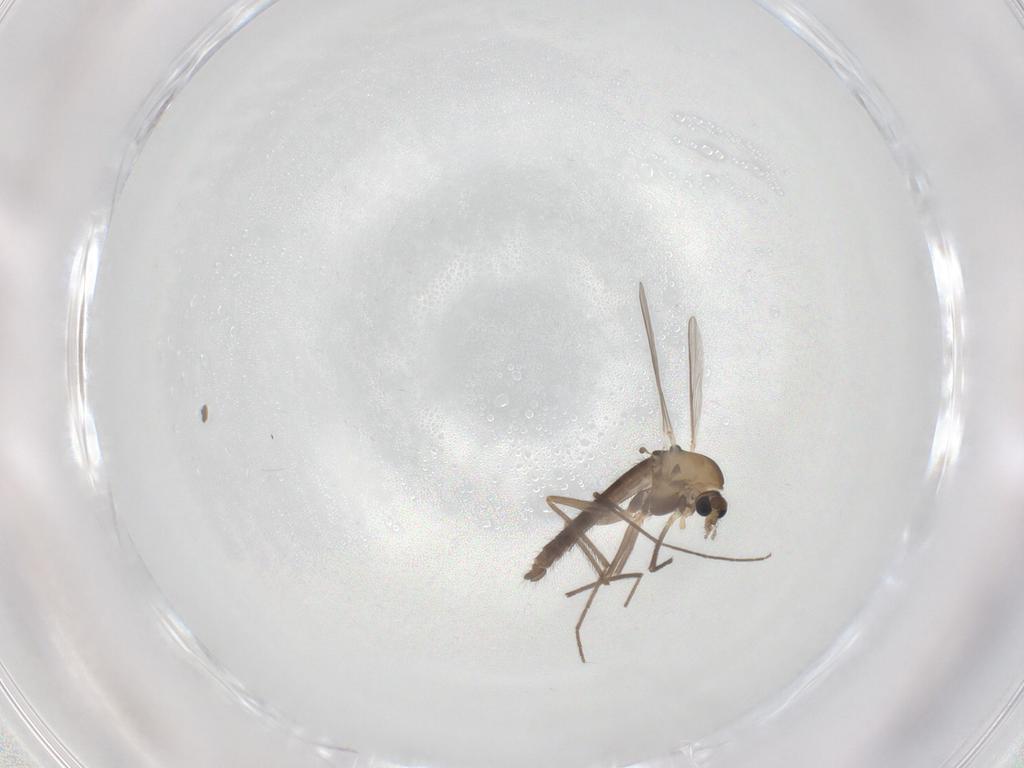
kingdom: Animalia
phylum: Arthropoda
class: Insecta
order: Diptera
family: Chironomidae
